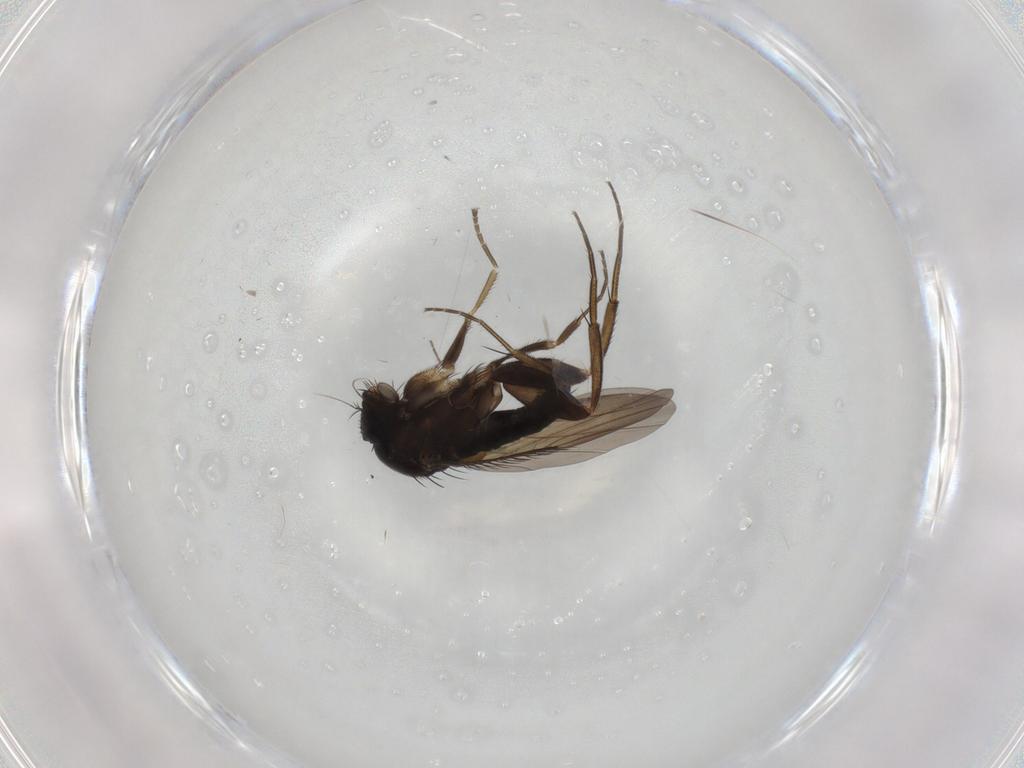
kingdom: Animalia
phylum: Arthropoda
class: Insecta
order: Diptera
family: Phoridae
